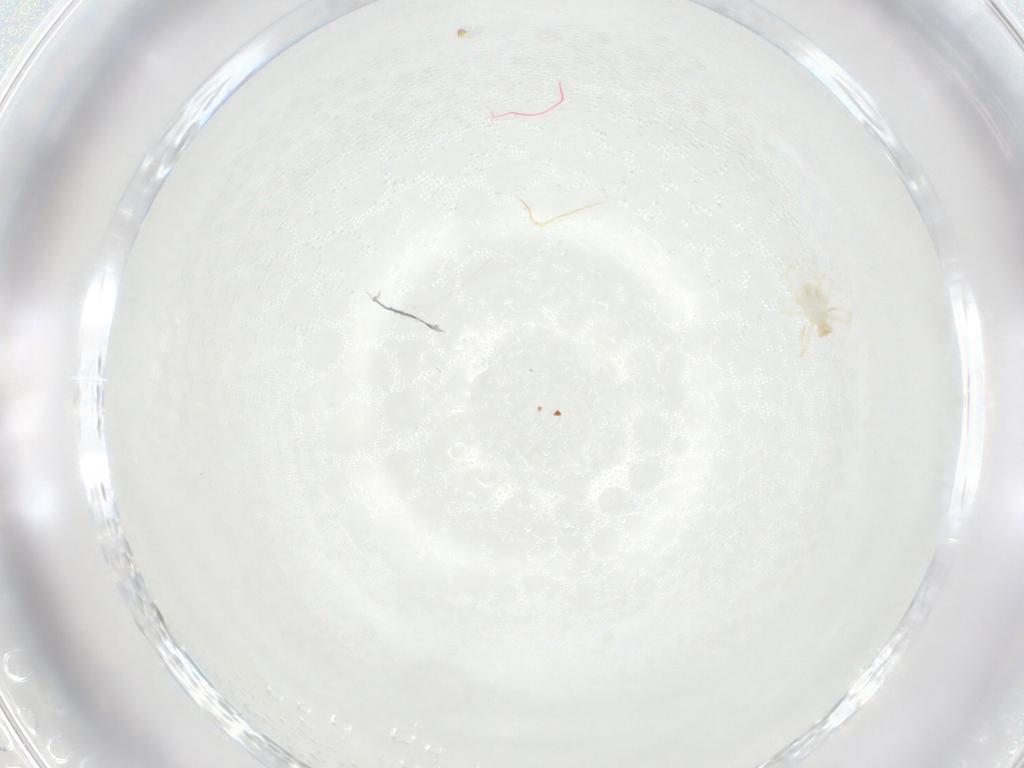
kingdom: Animalia
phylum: Arthropoda
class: Arachnida
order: Trombidiformes
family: Erythraeidae
